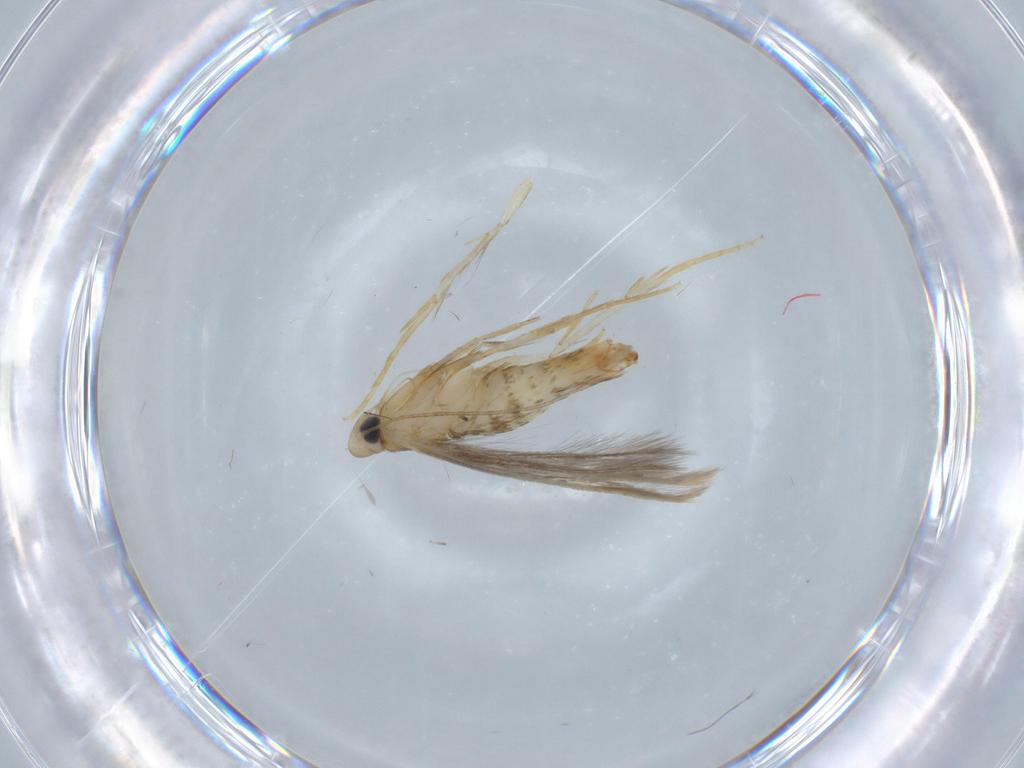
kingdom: Animalia
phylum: Arthropoda
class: Insecta
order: Lepidoptera
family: Tischeriidae
